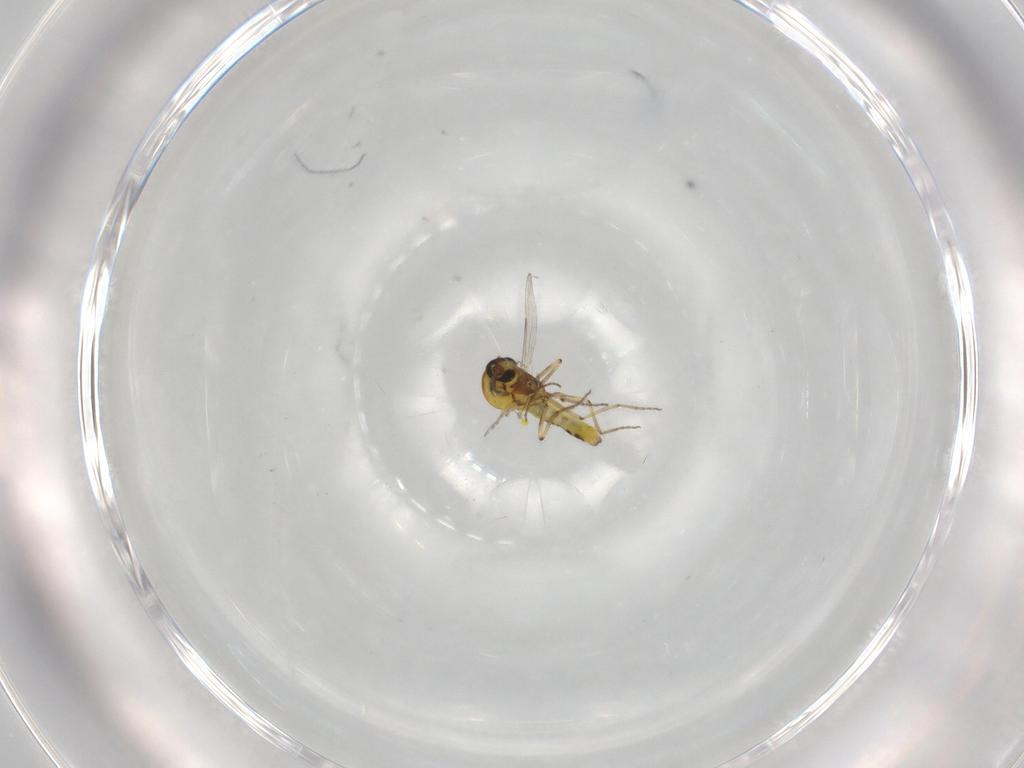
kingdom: Animalia
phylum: Arthropoda
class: Insecta
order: Diptera
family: Ceratopogonidae
